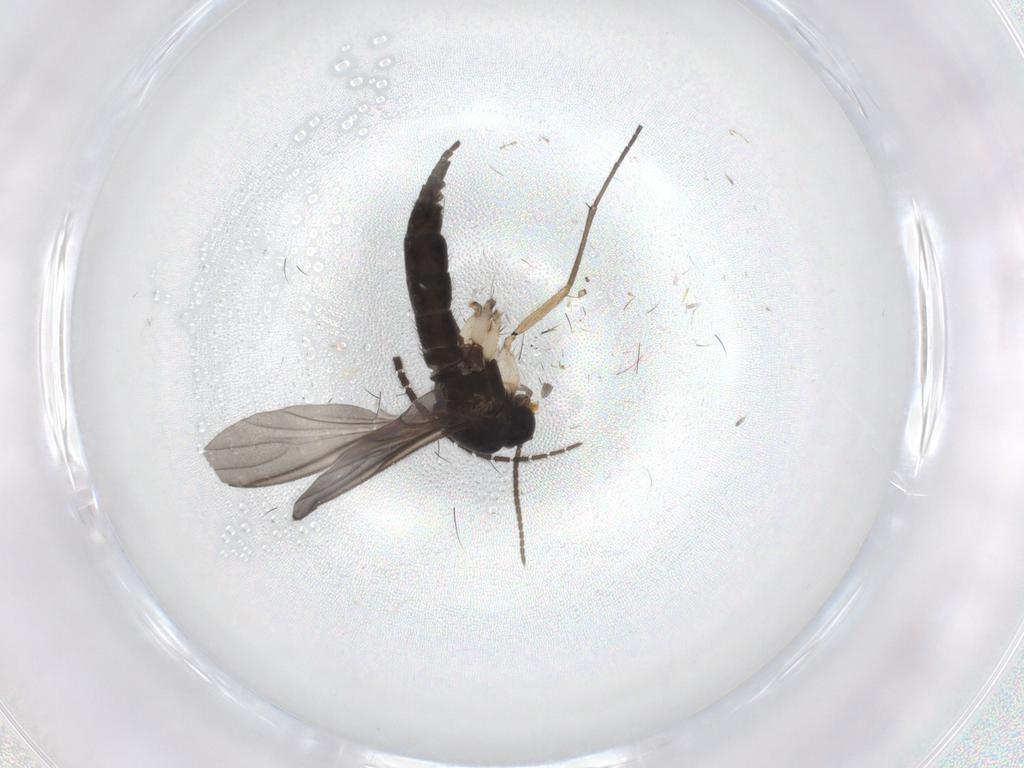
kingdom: Animalia
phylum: Arthropoda
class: Insecta
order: Diptera
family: Sciaridae
